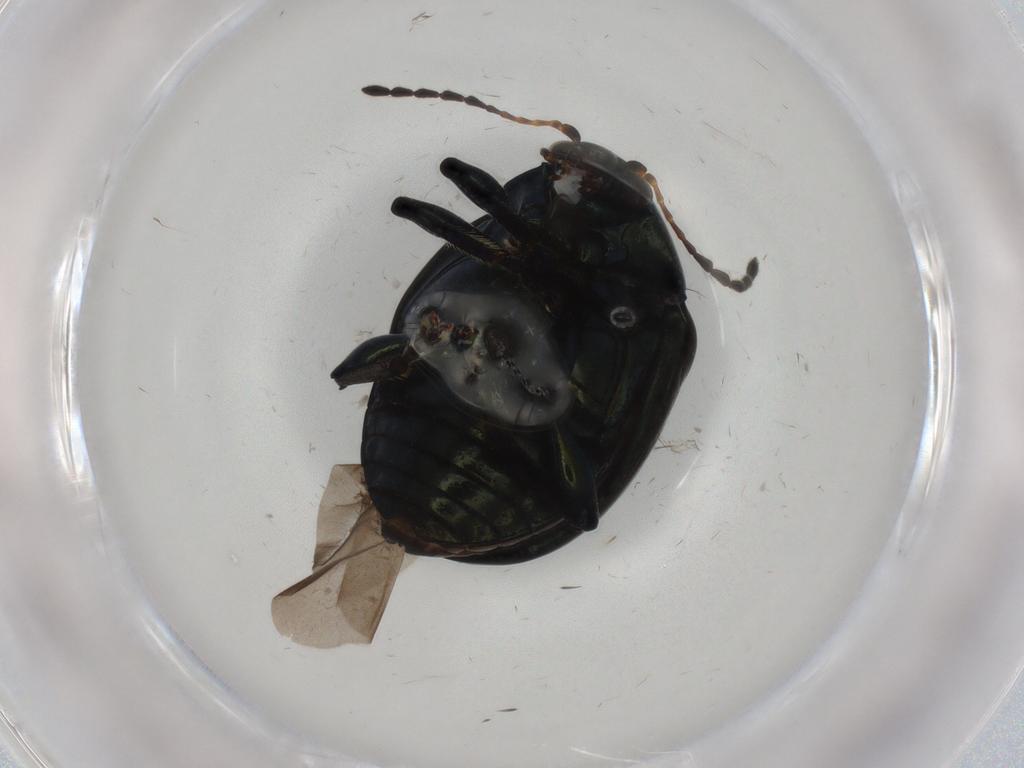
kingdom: Animalia
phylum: Arthropoda
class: Insecta
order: Coleoptera
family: Chrysomelidae
